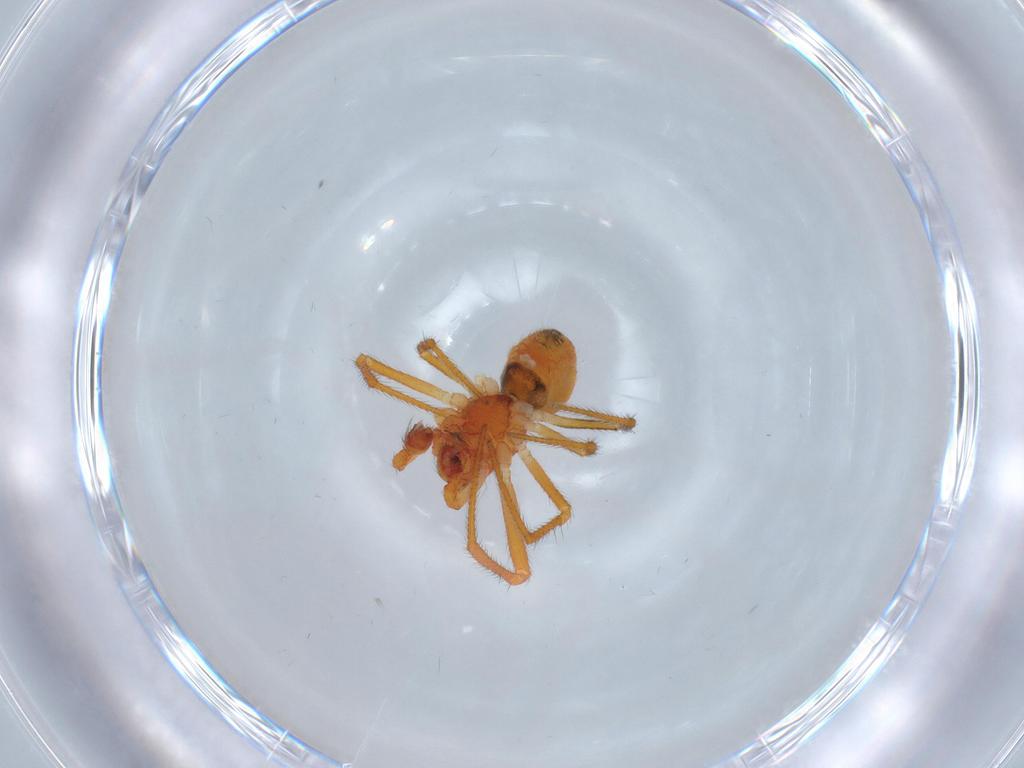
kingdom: Animalia
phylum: Arthropoda
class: Arachnida
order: Araneae
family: Theridiidae
